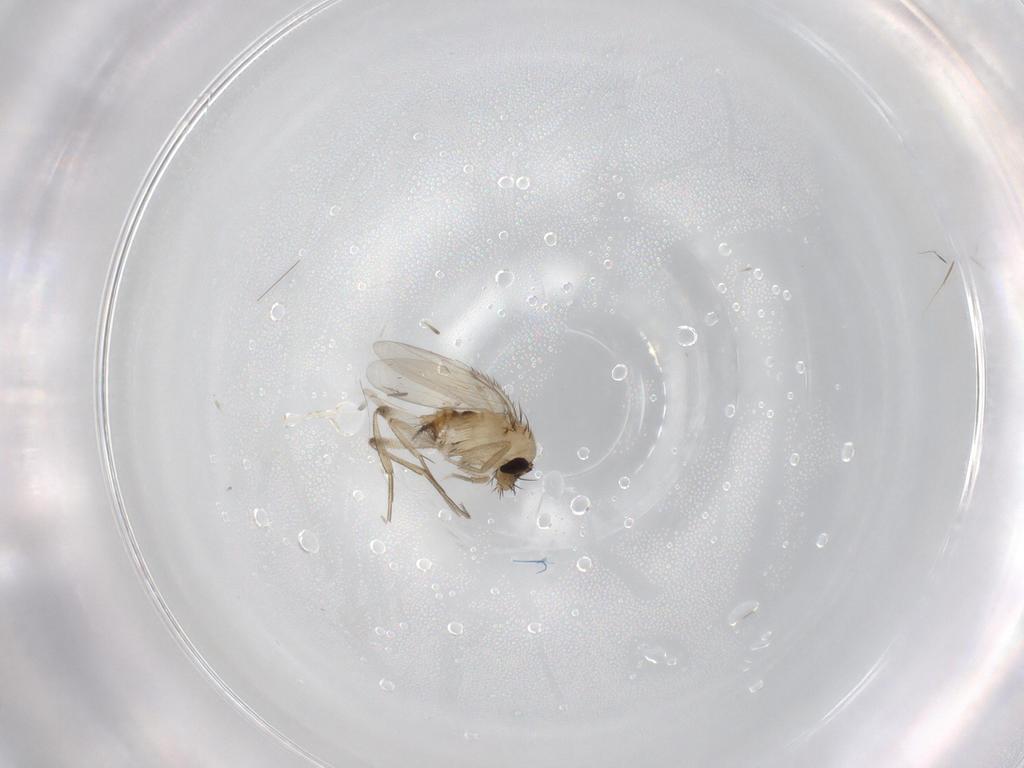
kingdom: Animalia
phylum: Arthropoda
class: Insecta
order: Diptera
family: Phoridae
